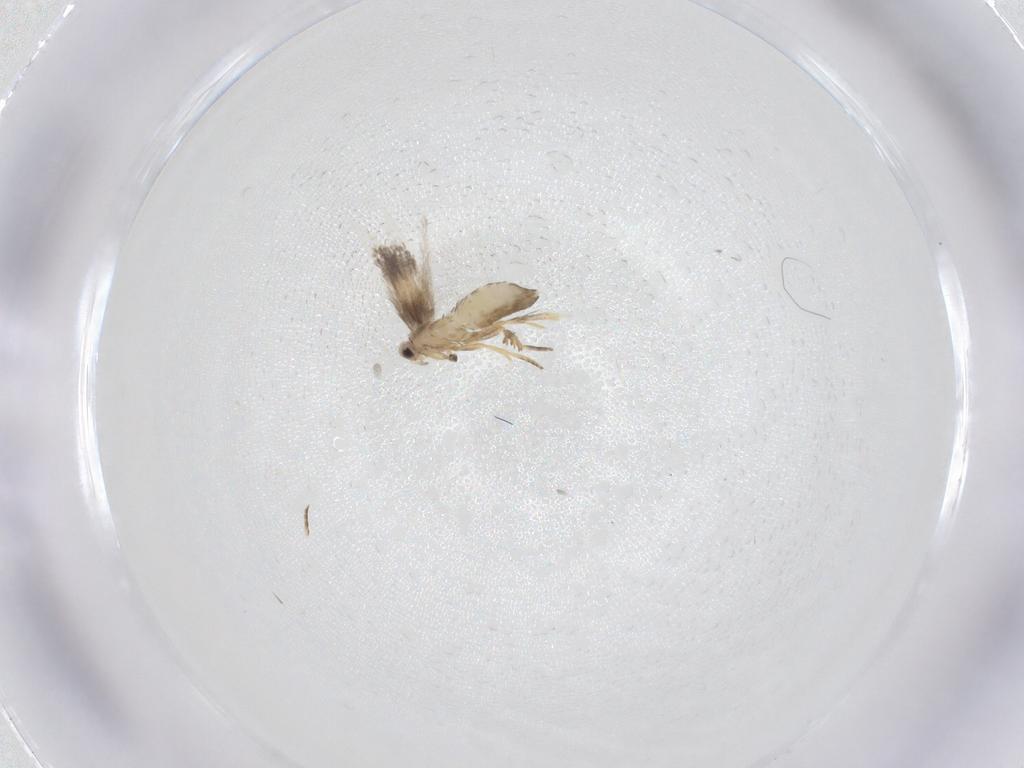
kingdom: Animalia
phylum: Arthropoda
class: Insecta
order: Lepidoptera
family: Nepticulidae
